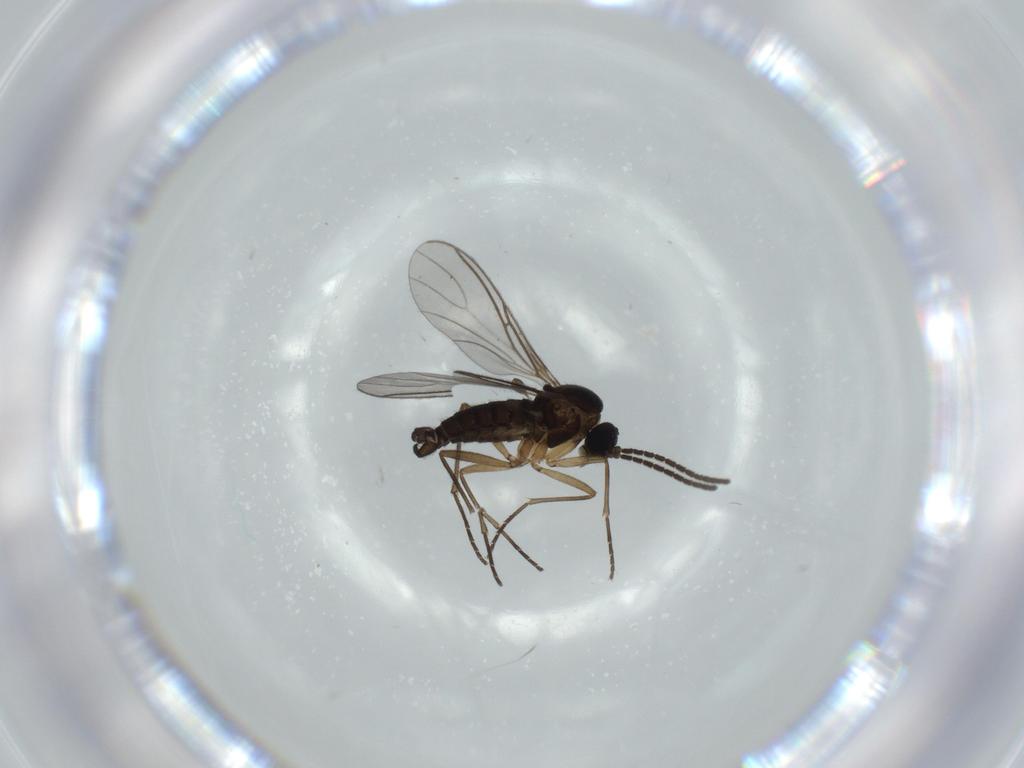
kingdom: Animalia
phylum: Arthropoda
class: Insecta
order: Diptera
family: Sciaridae
